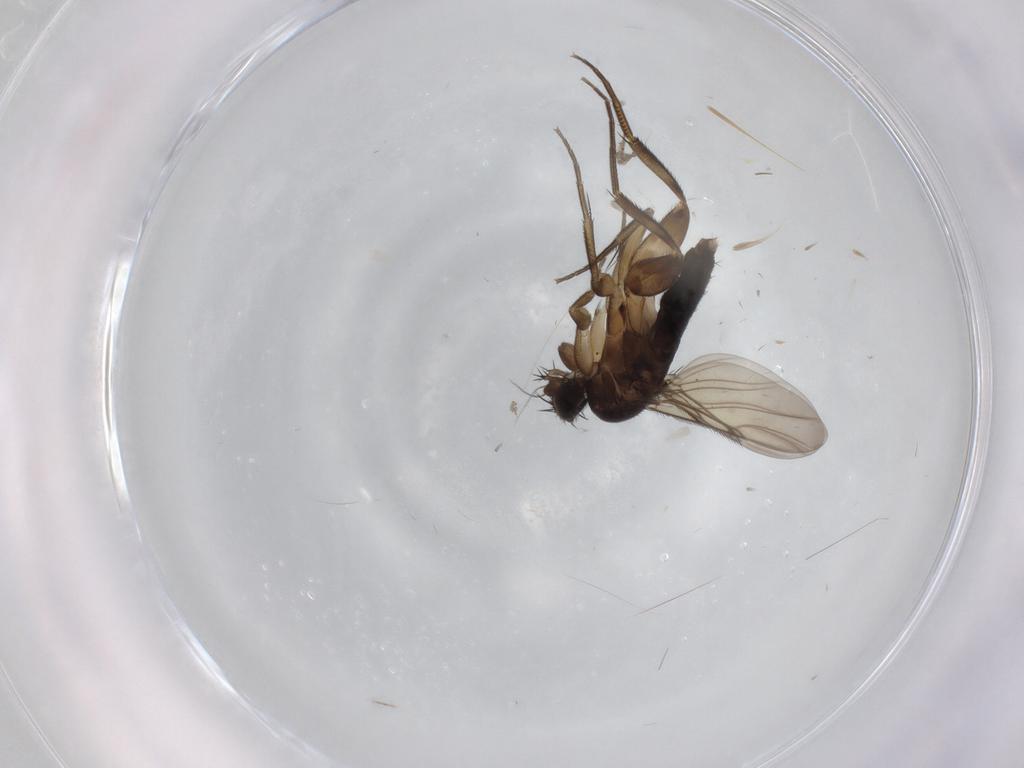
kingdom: Animalia
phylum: Arthropoda
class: Insecta
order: Diptera
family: Phoridae
